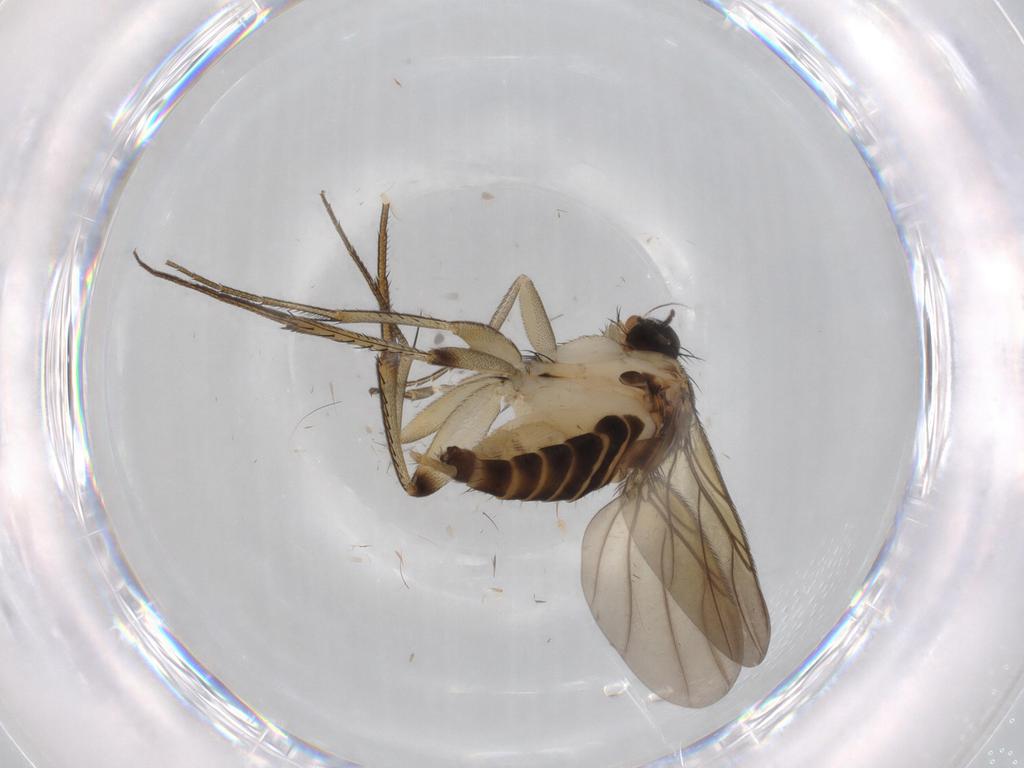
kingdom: Animalia
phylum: Arthropoda
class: Insecta
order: Diptera
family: Phoridae
